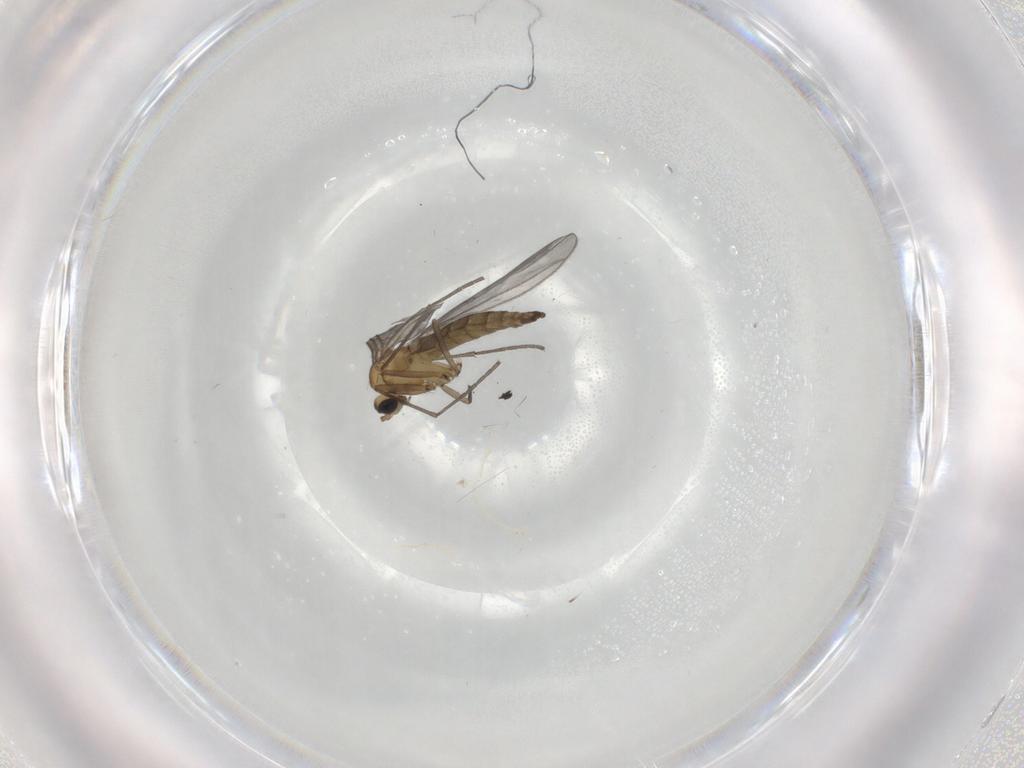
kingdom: Animalia
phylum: Arthropoda
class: Insecta
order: Diptera
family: Sciaridae
